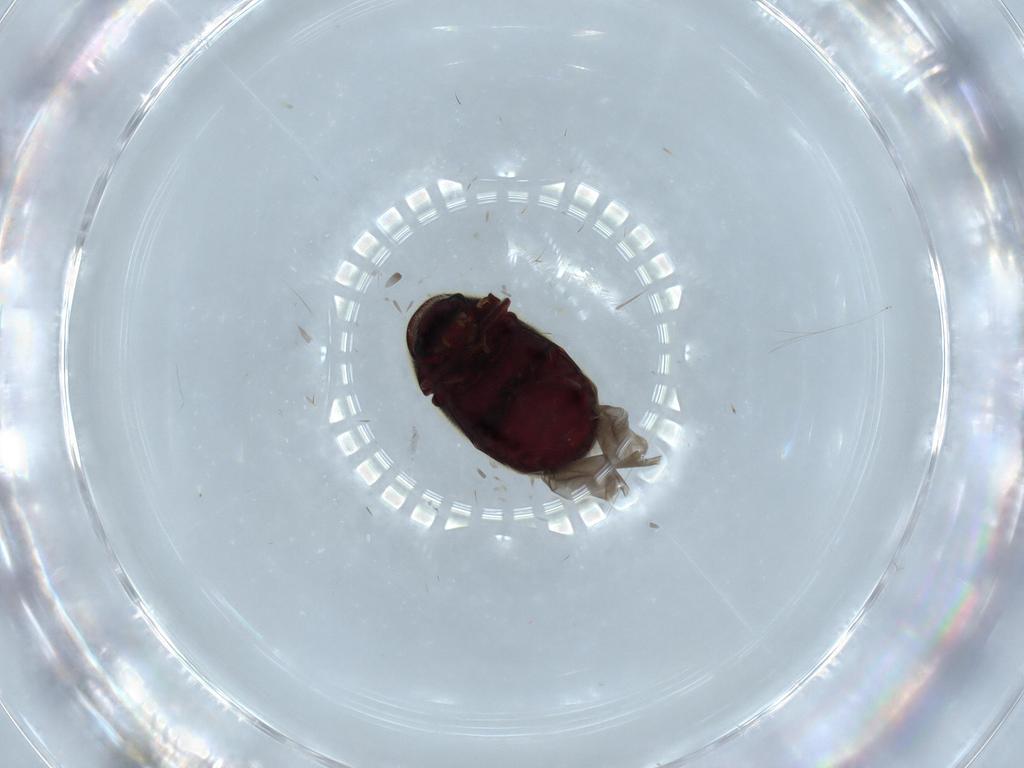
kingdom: Animalia
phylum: Arthropoda
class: Insecta
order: Coleoptera
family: Ptinidae
